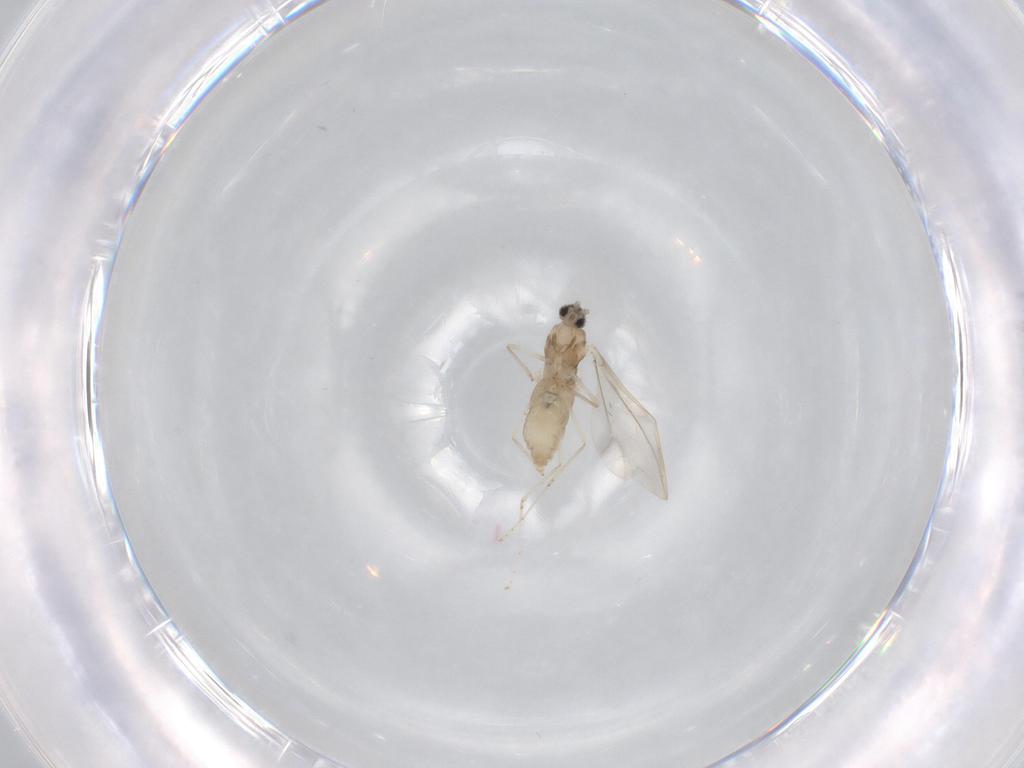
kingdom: Animalia
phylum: Arthropoda
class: Insecta
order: Diptera
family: Cecidomyiidae
